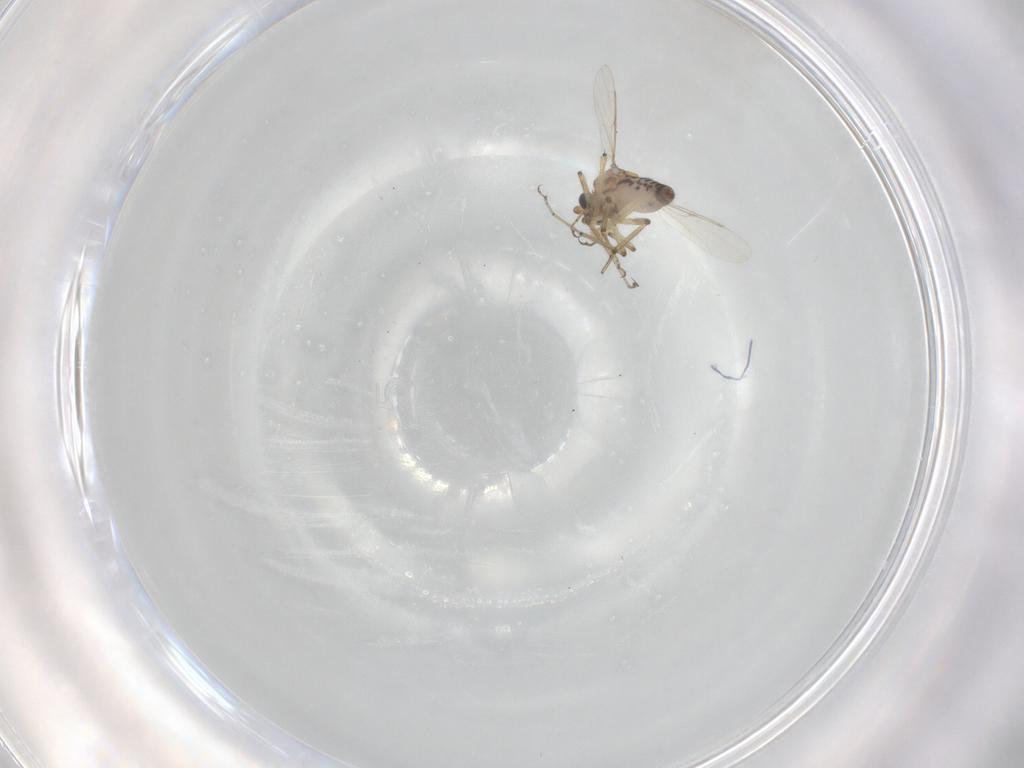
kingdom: Animalia
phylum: Arthropoda
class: Insecta
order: Diptera
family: Ceratopogonidae
